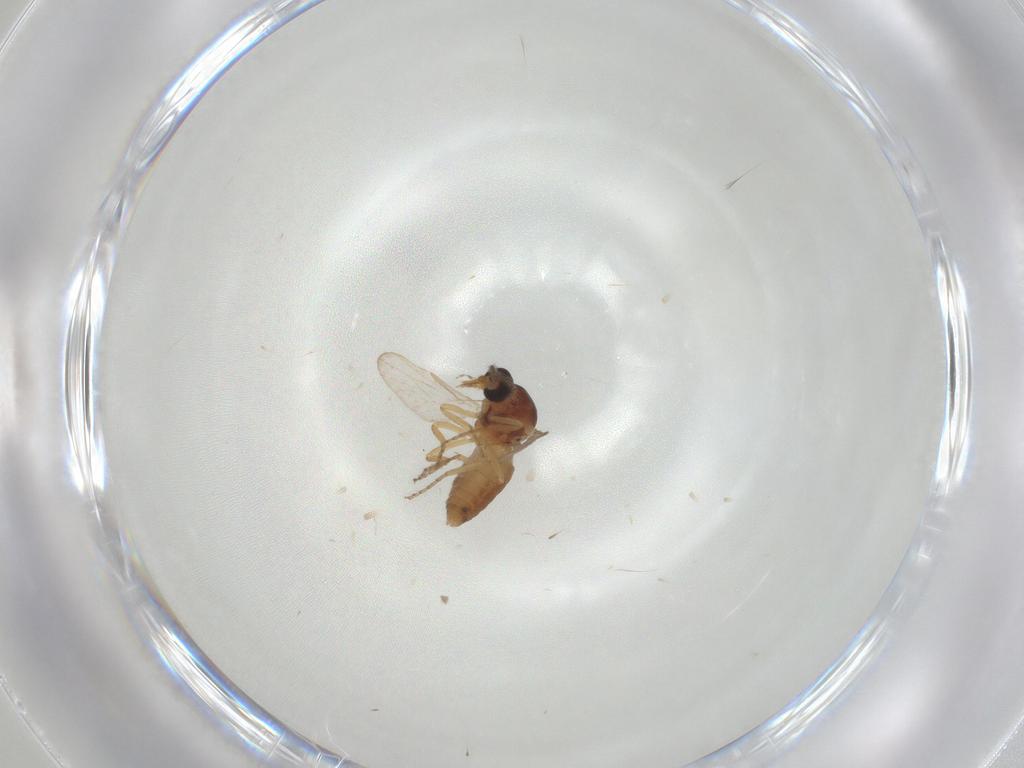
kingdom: Animalia
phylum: Arthropoda
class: Insecta
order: Diptera
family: Ceratopogonidae
